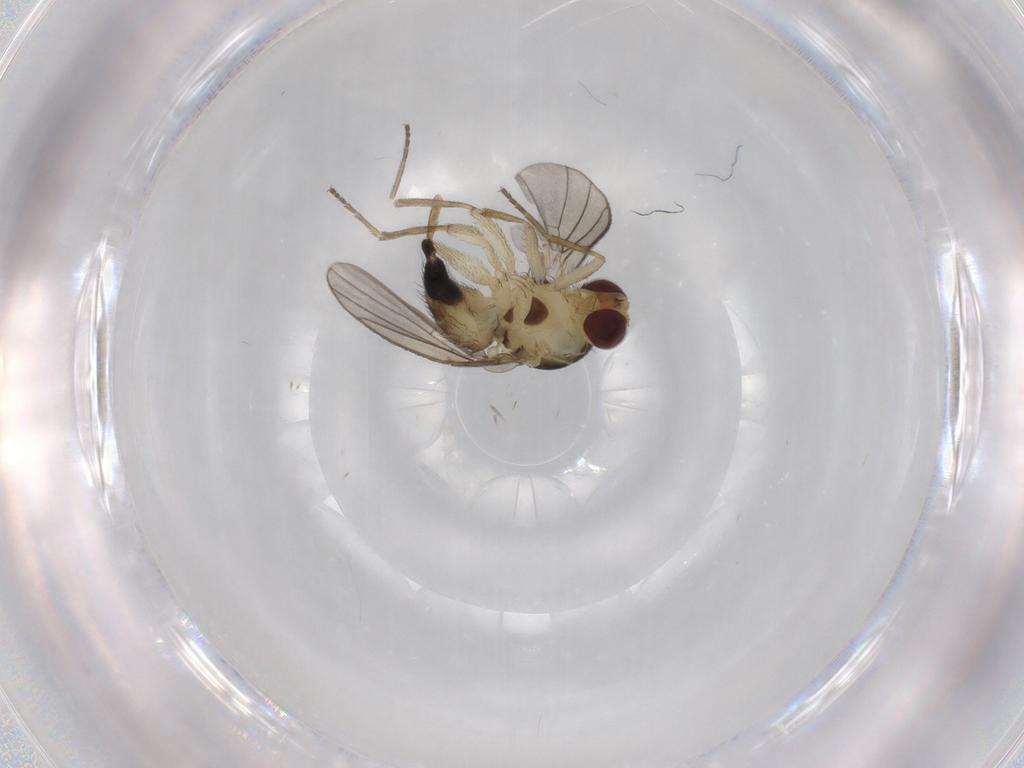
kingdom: Animalia
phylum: Arthropoda
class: Insecta
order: Diptera
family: Agromyzidae
